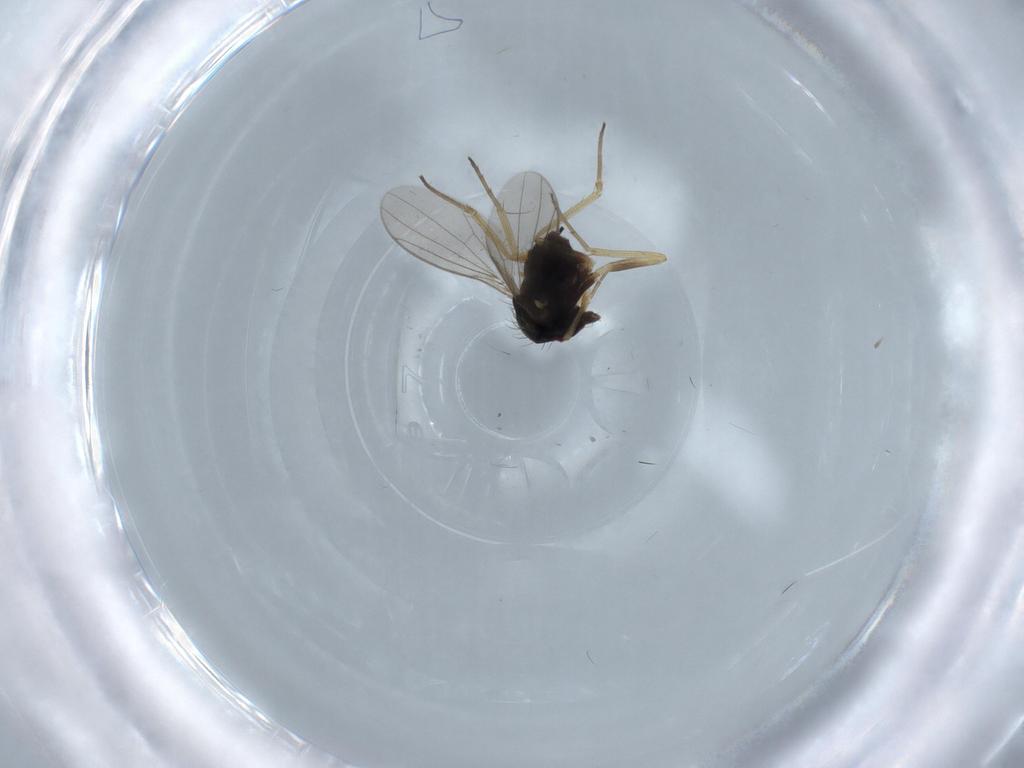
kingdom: Animalia
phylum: Arthropoda
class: Insecta
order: Diptera
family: Dolichopodidae
